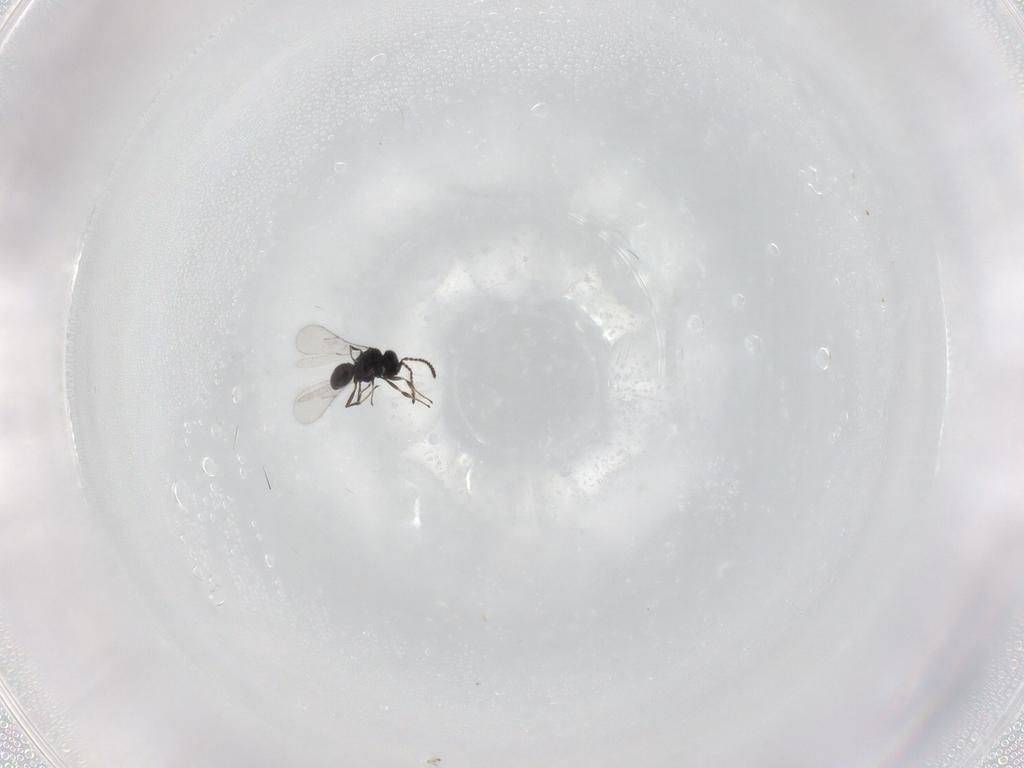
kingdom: Animalia
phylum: Arthropoda
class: Insecta
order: Hymenoptera
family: Scelionidae
